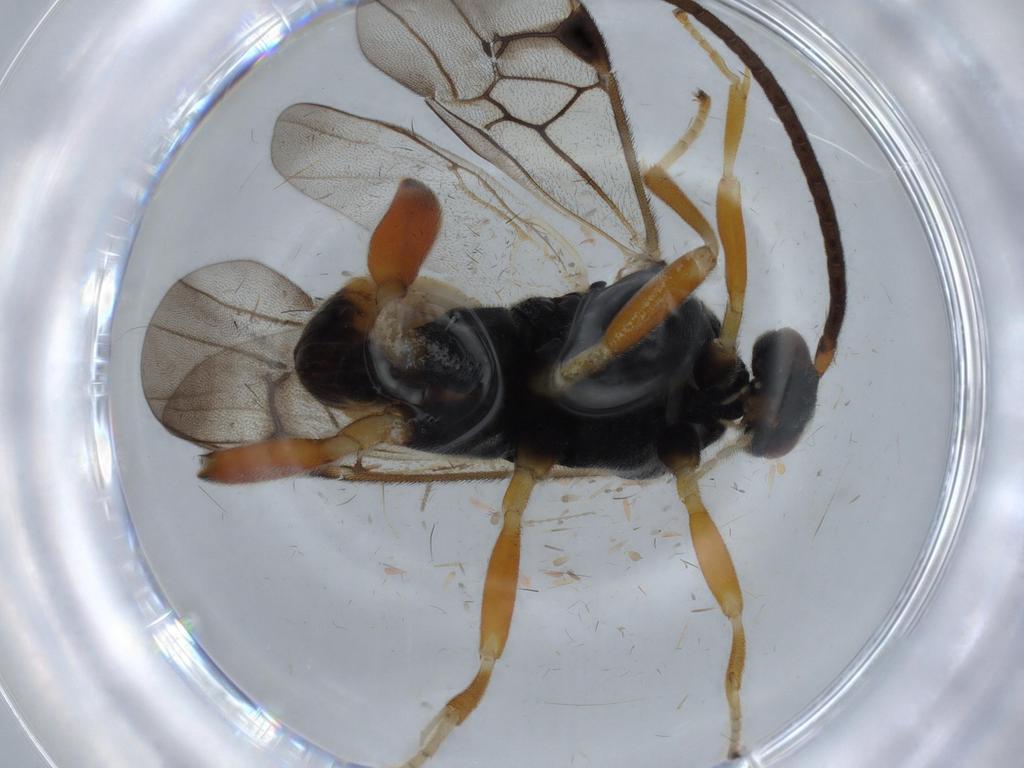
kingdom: Animalia
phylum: Arthropoda
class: Insecta
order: Hymenoptera
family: Braconidae
